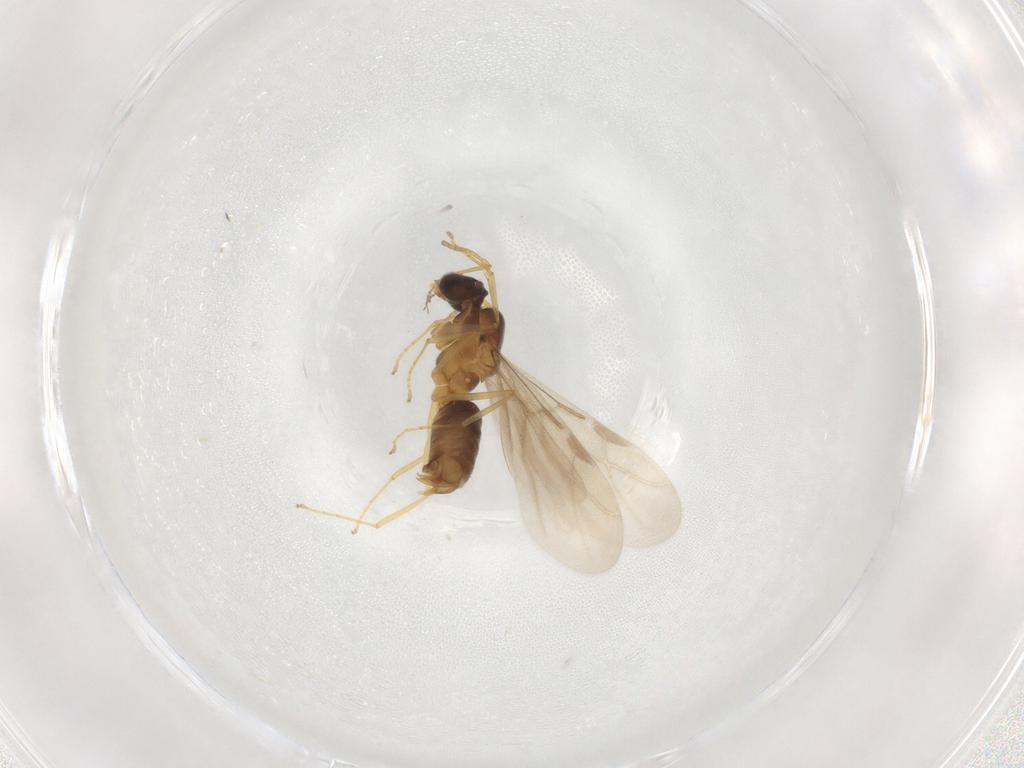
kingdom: Animalia
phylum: Arthropoda
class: Insecta
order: Hymenoptera
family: Formicidae
